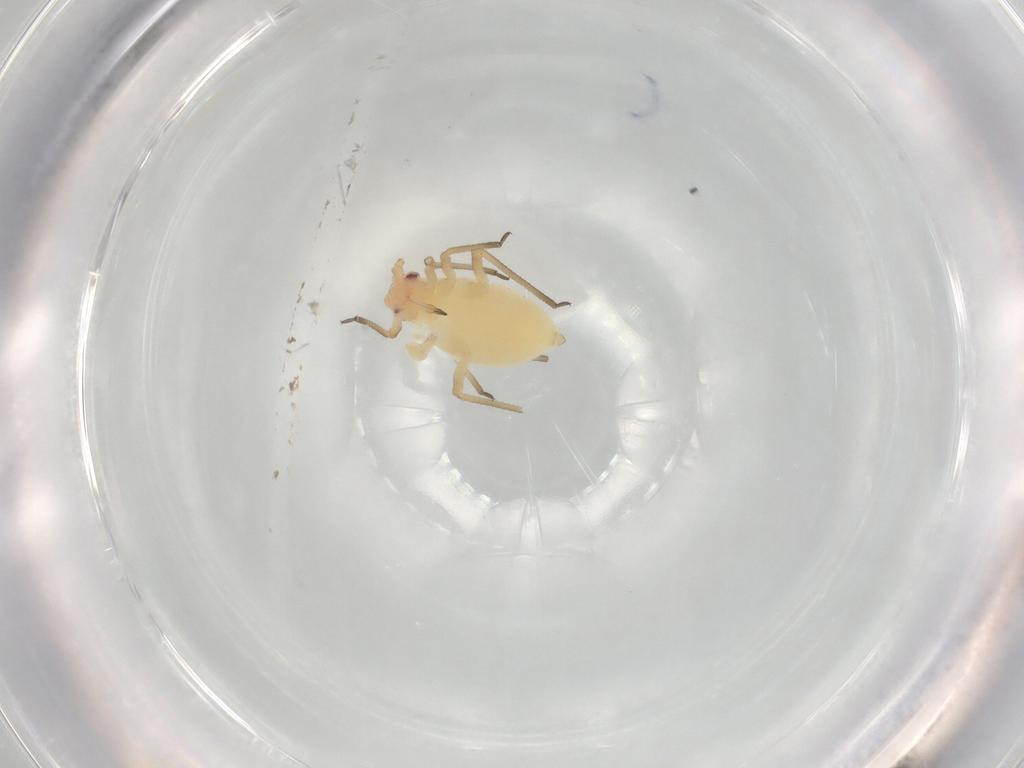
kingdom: Animalia
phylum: Arthropoda
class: Insecta
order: Hemiptera
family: Aphididae
